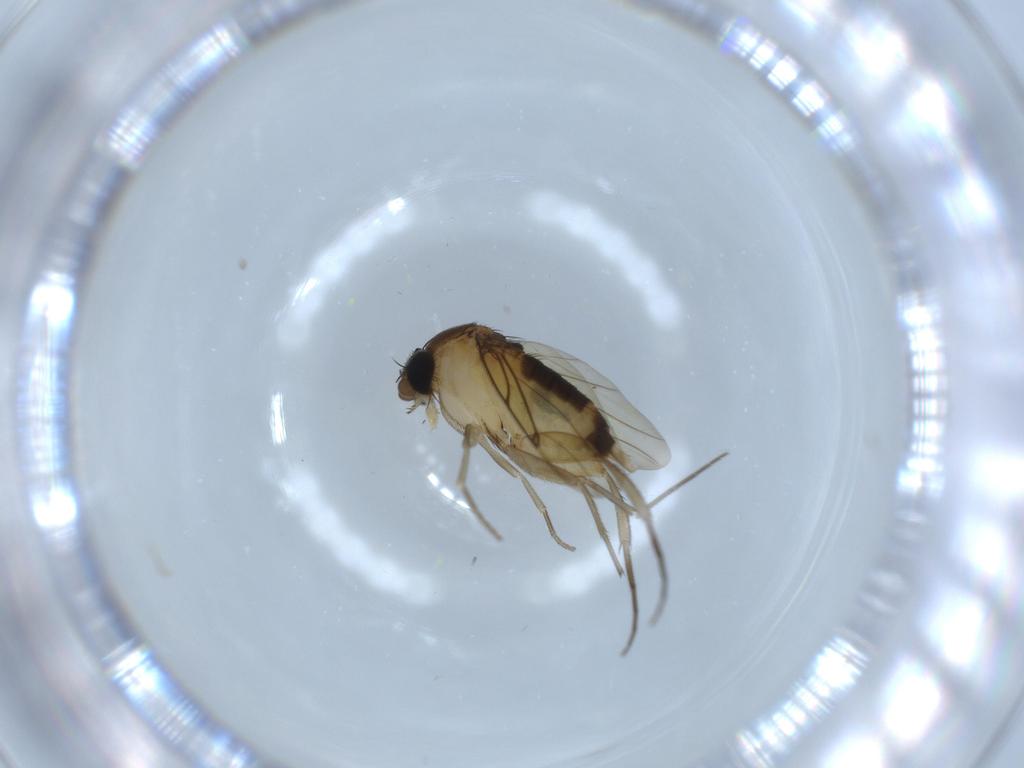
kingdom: Animalia
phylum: Arthropoda
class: Insecta
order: Diptera
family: Phoridae
